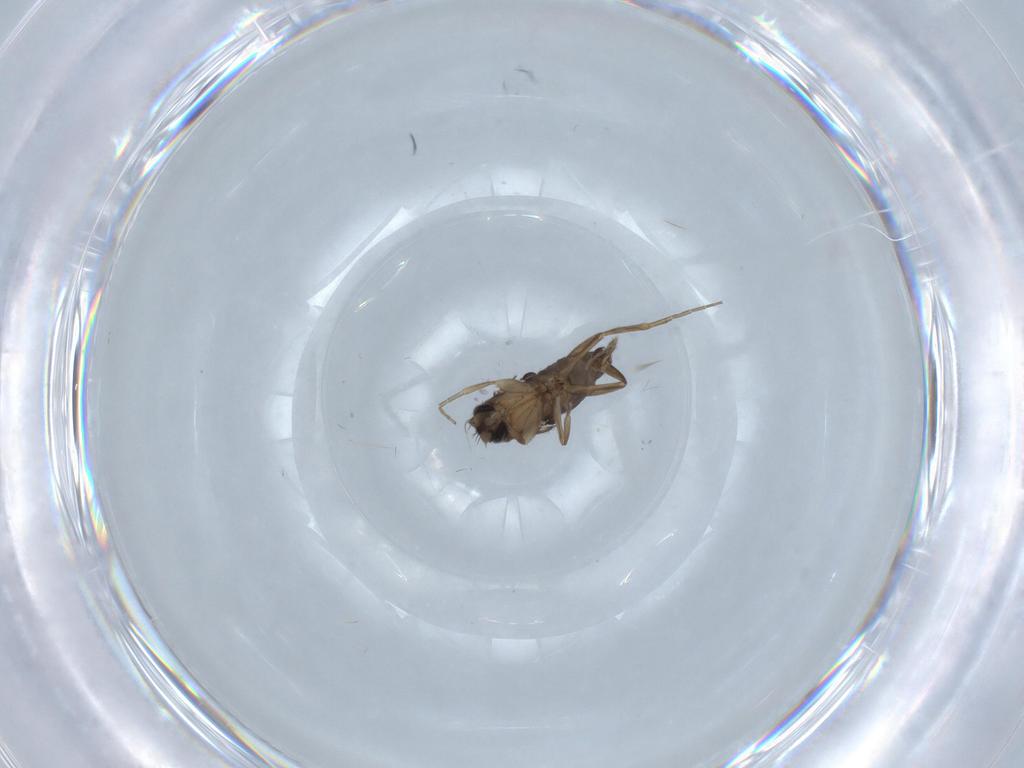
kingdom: Animalia
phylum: Arthropoda
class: Insecta
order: Diptera
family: Phoridae
